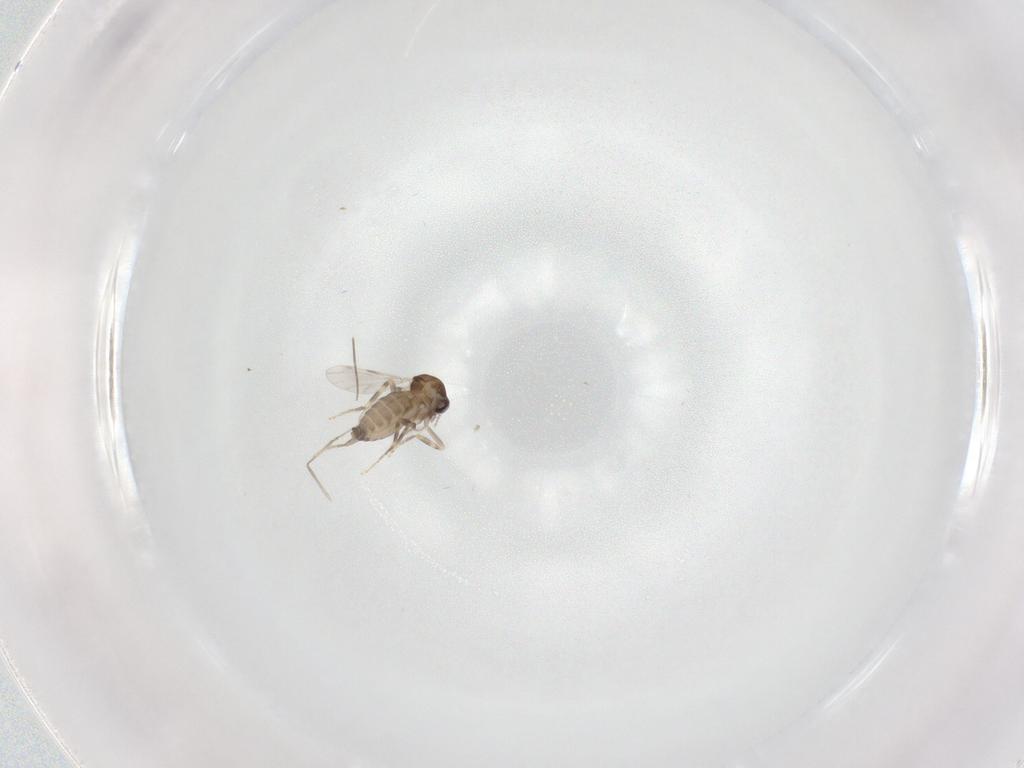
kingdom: Animalia
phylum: Arthropoda
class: Insecta
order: Diptera
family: Ceratopogonidae
